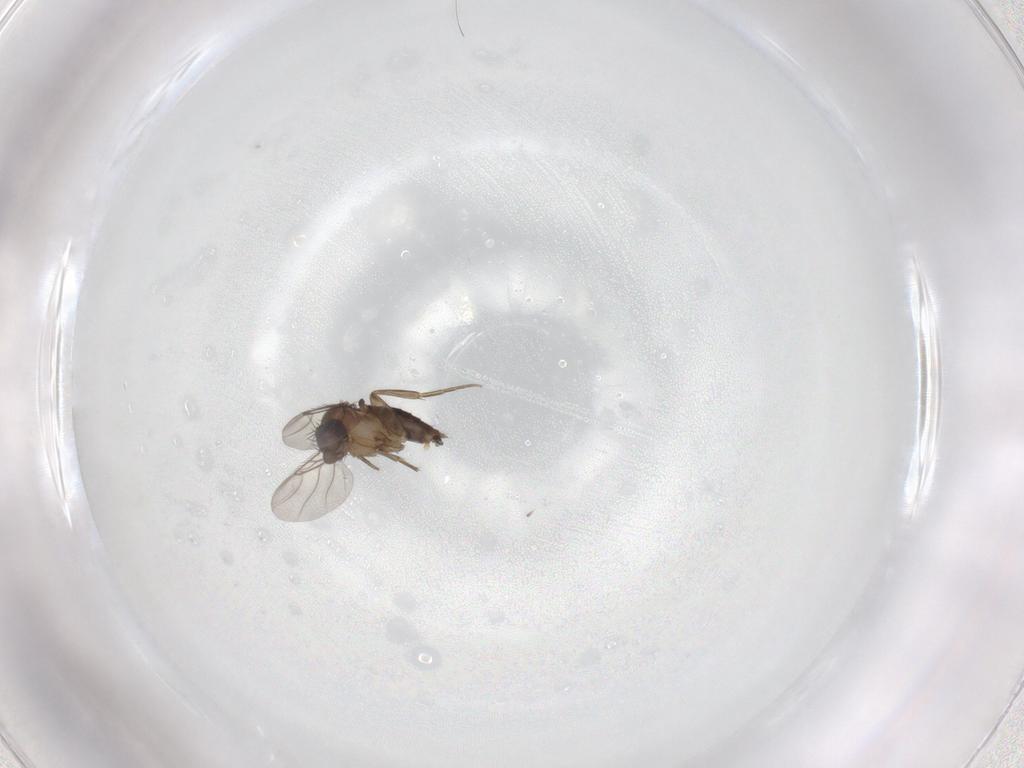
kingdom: Animalia
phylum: Arthropoda
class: Insecta
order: Diptera
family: Phoridae
